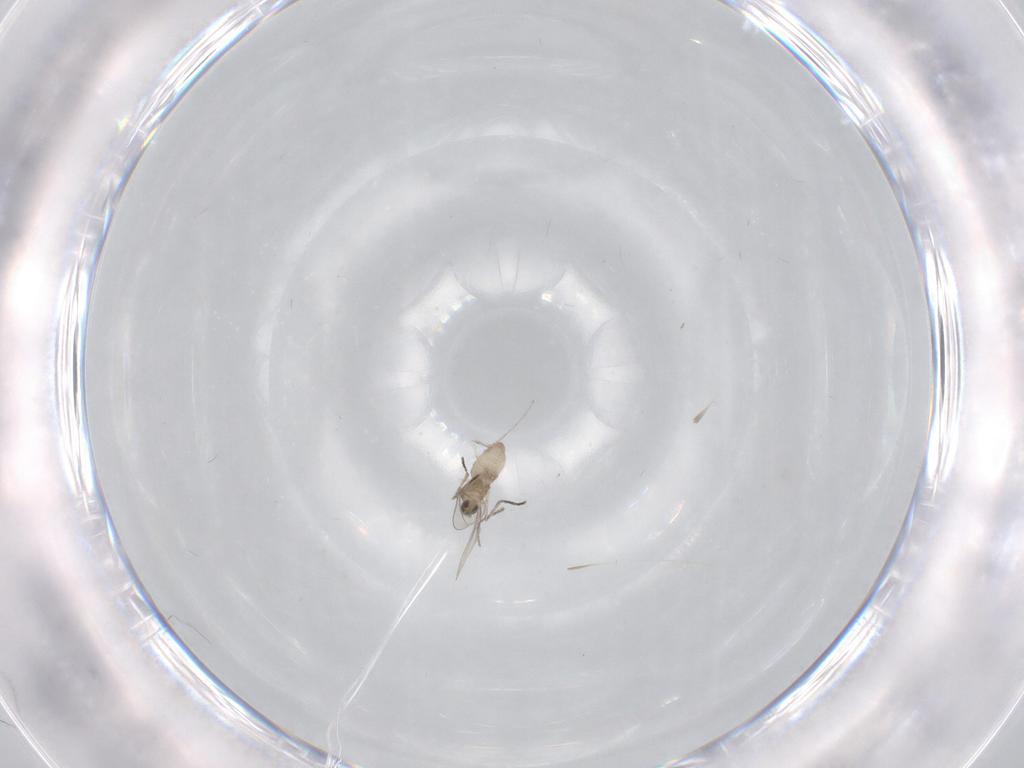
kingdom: Animalia
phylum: Arthropoda
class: Insecta
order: Diptera
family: Cecidomyiidae
